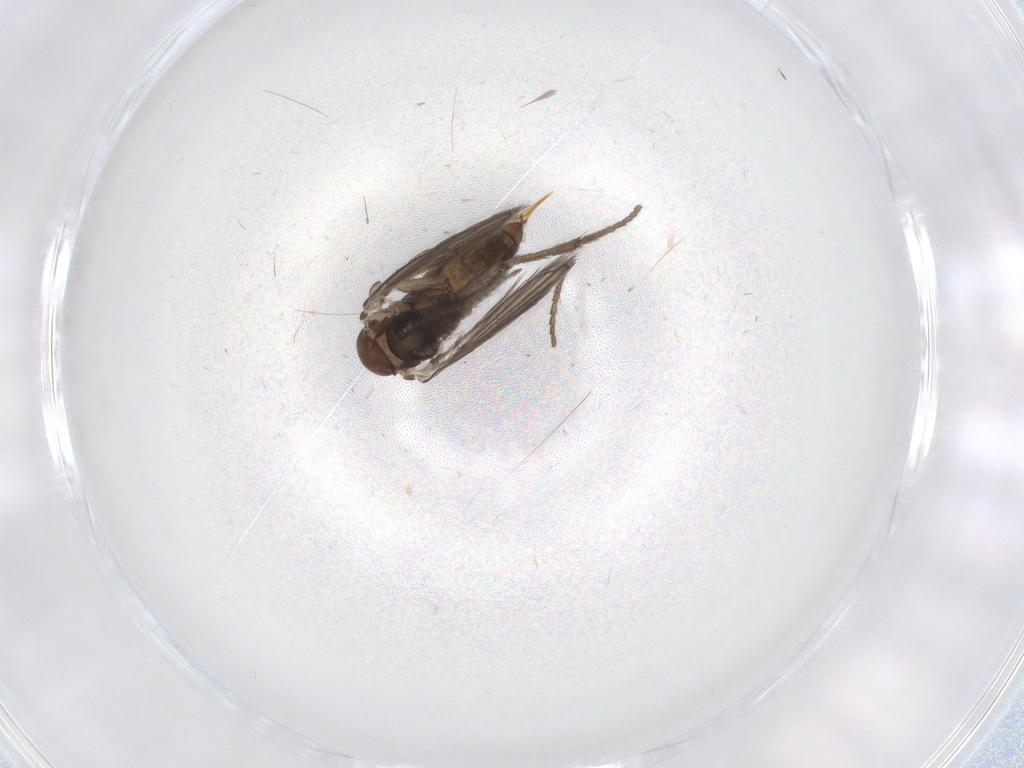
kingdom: Animalia
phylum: Arthropoda
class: Insecta
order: Diptera
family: Psychodidae
